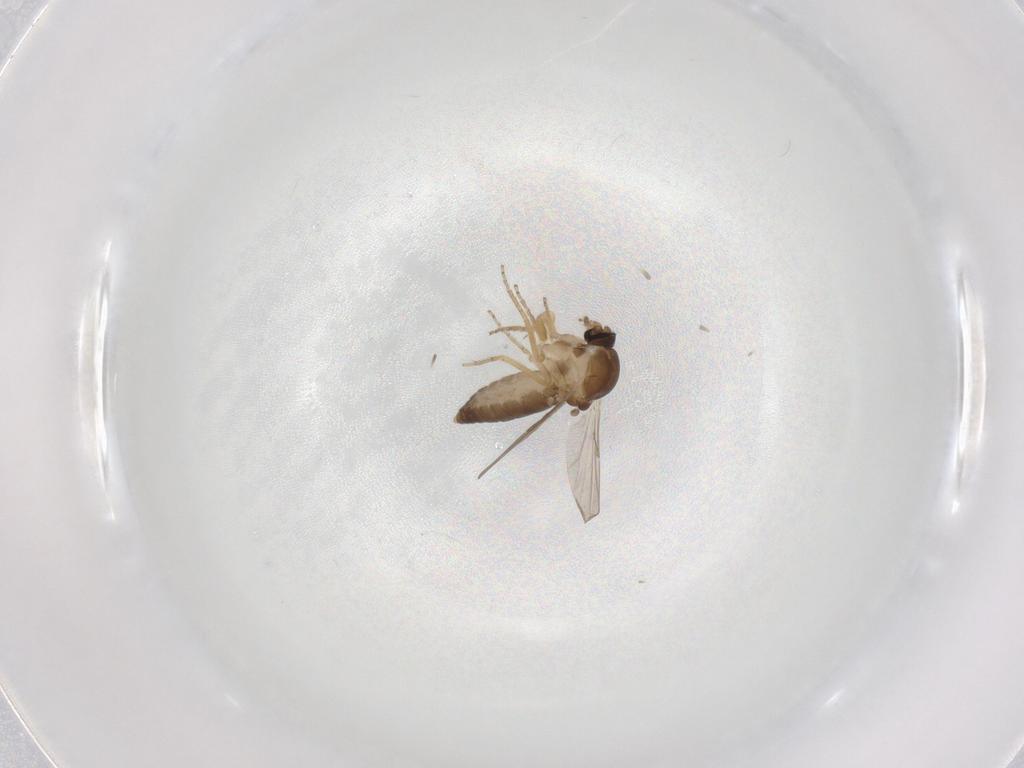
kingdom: Animalia
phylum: Arthropoda
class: Insecta
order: Diptera
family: Ceratopogonidae
